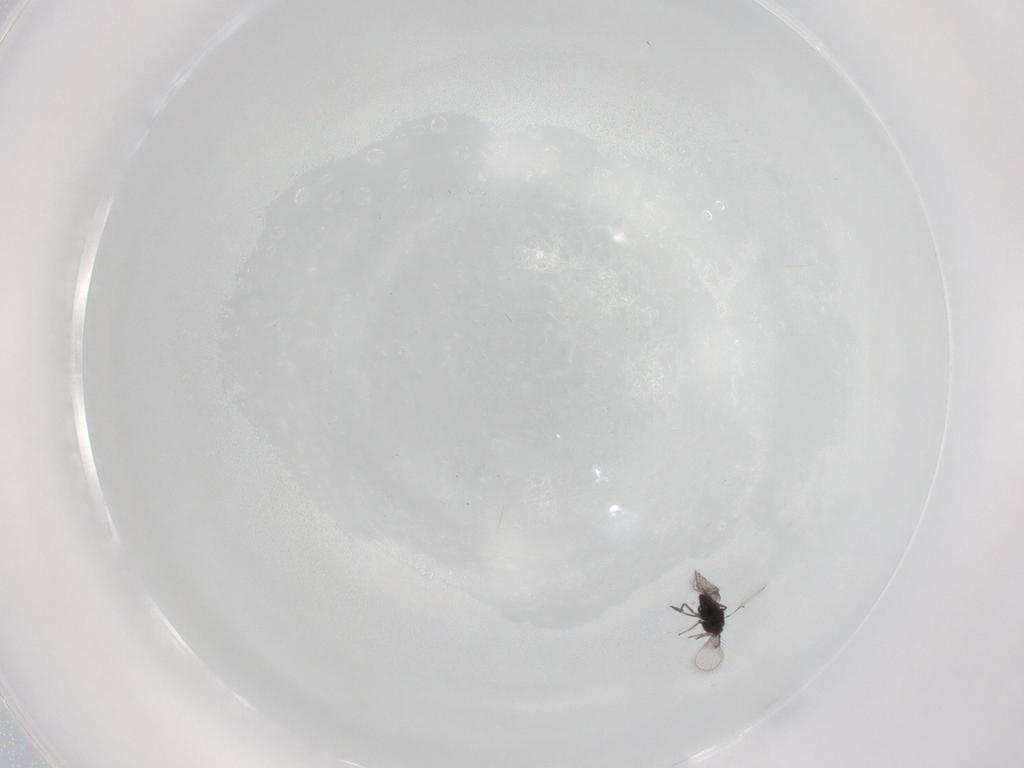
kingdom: Animalia
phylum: Arthropoda
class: Insecta
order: Hymenoptera
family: Trichogrammatidae
